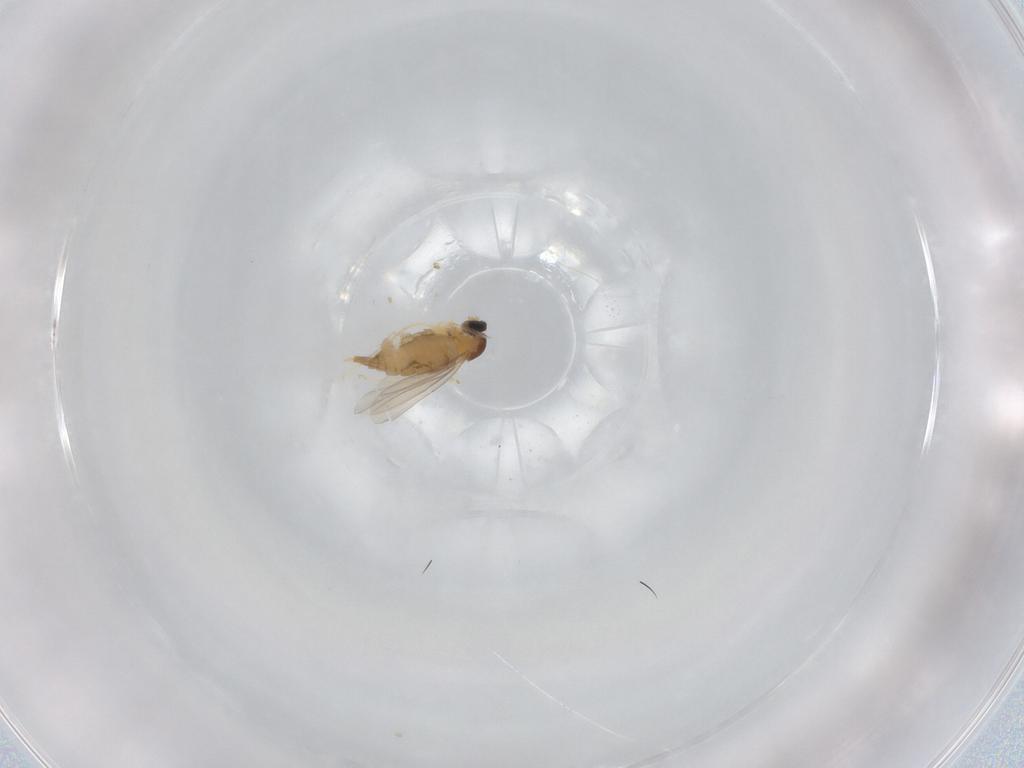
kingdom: Animalia
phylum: Arthropoda
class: Insecta
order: Diptera
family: Cecidomyiidae
